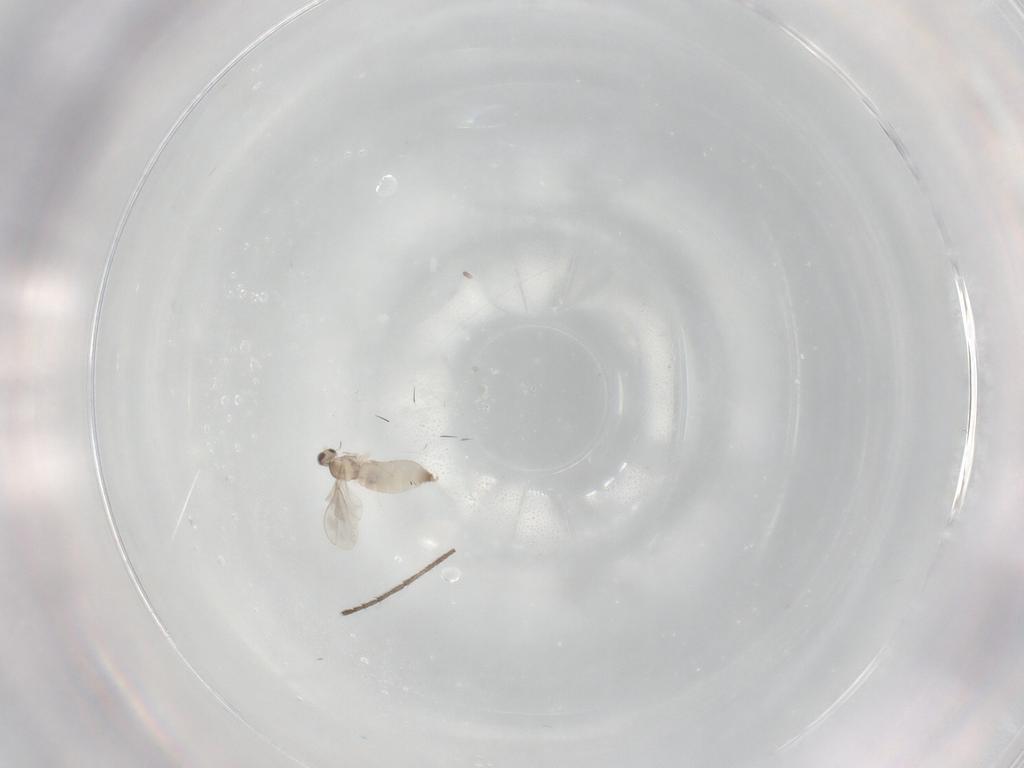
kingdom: Animalia
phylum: Arthropoda
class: Insecta
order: Diptera
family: Cecidomyiidae
